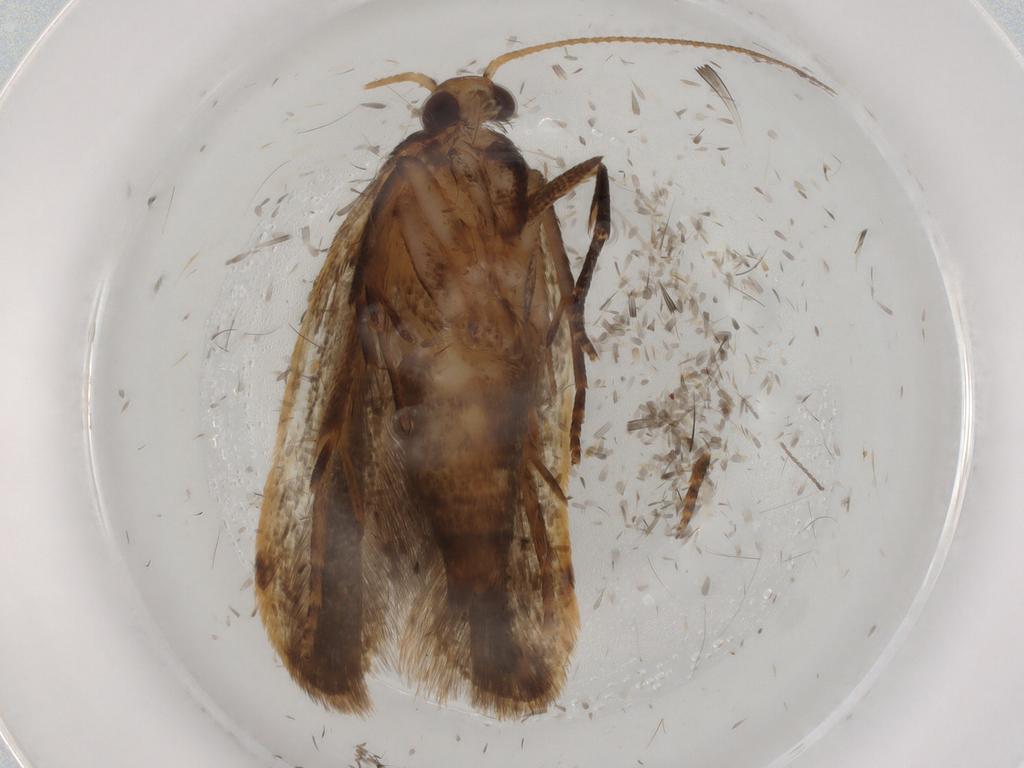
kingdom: Animalia
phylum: Arthropoda
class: Insecta
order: Lepidoptera
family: Gelechiidae
